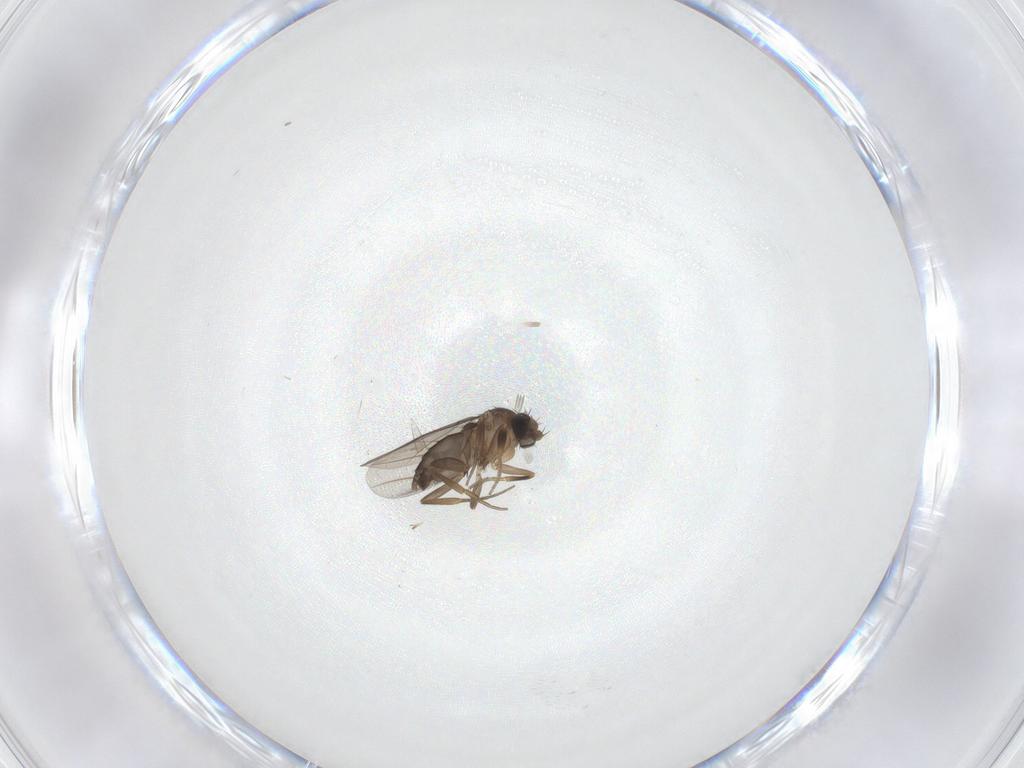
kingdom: Animalia
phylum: Arthropoda
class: Insecta
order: Diptera
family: Phoridae
